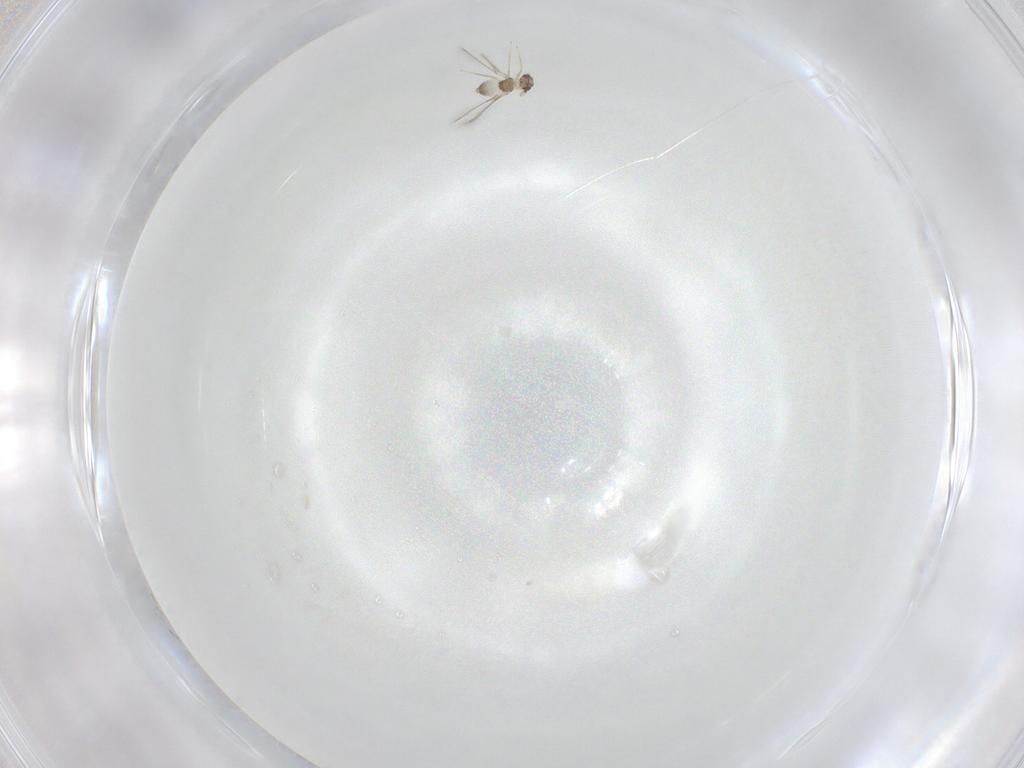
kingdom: Animalia
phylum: Arthropoda
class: Insecta
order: Hymenoptera
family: Mymaridae
